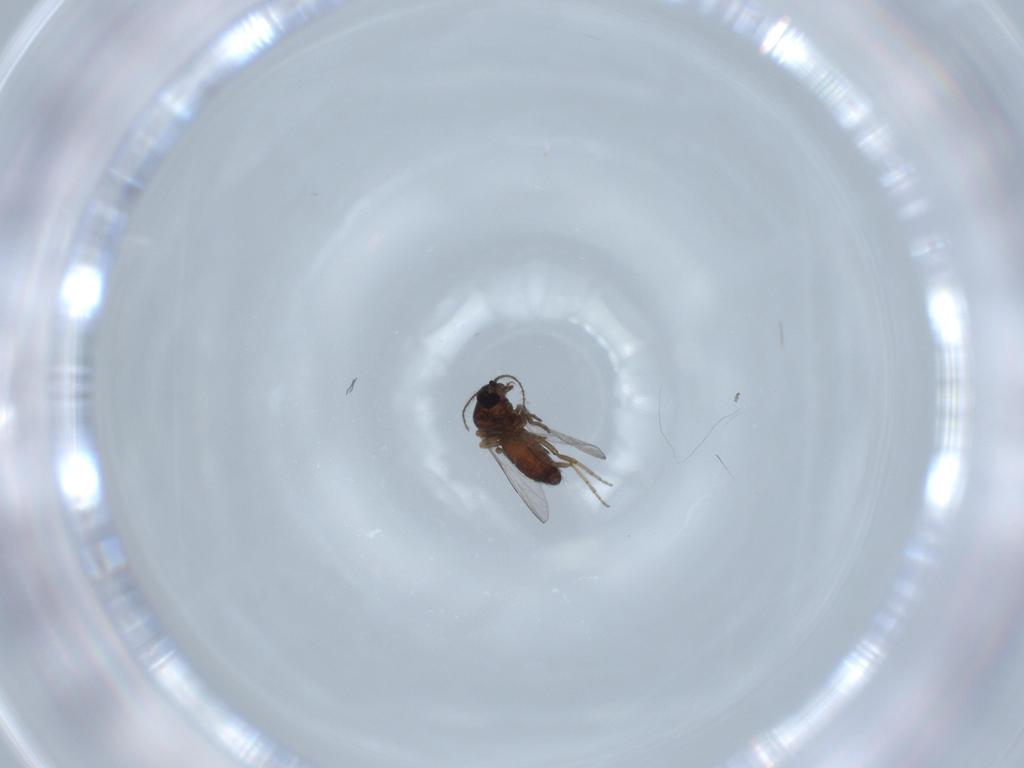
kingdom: Animalia
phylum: Arthropoda
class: Insecta
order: Diptera
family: Ceratopogonidae
